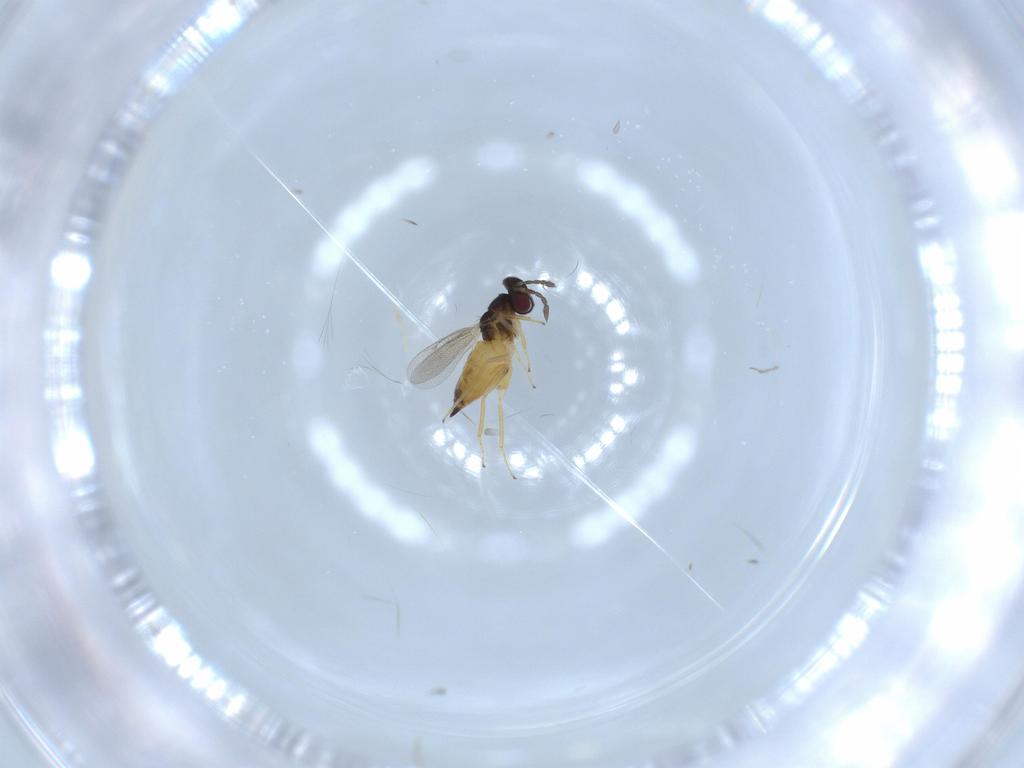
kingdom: Animalia
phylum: Arthropoda
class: Insecta
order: Hymenoptera
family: Eulophidae
